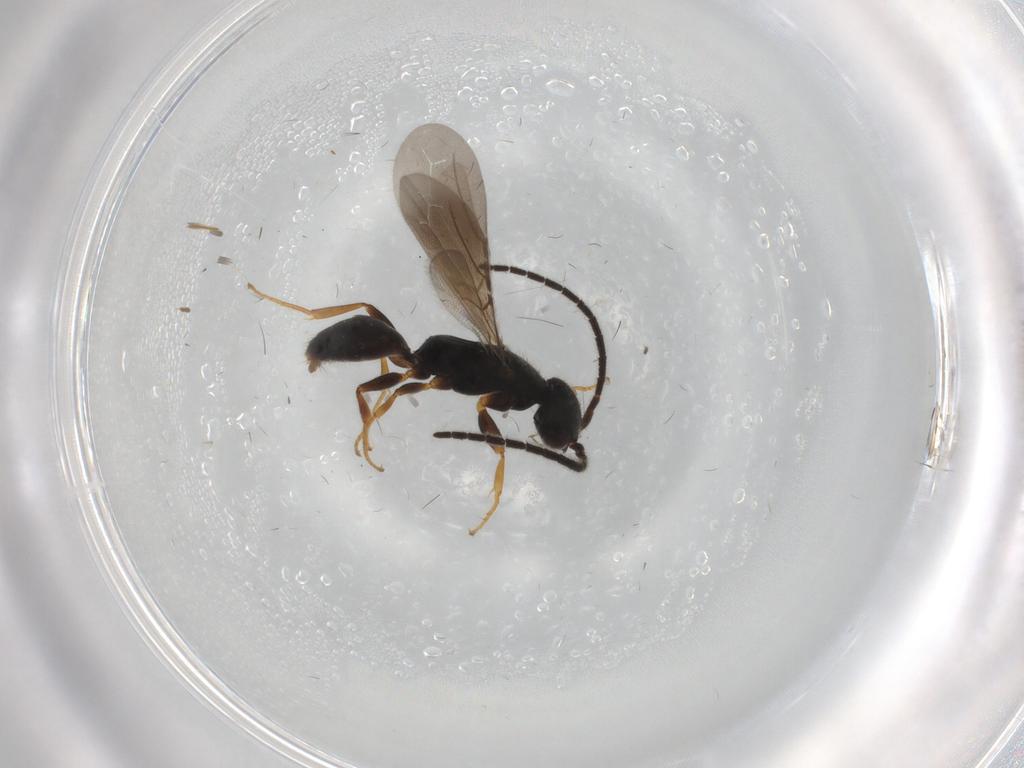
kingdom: Animalia
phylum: Arthropoda
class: Insecta
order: Hymenoptera
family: Bethylidae
